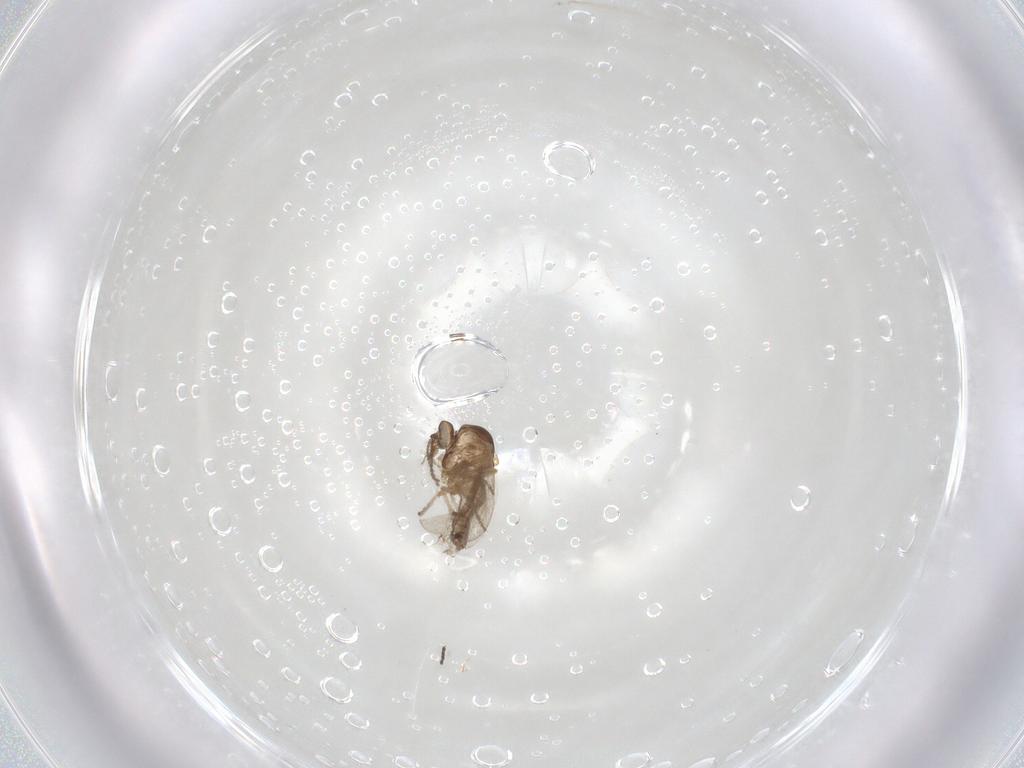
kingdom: Animalia
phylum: Arthropoda
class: Insecta
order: Diptera
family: Ceratopogonidae
